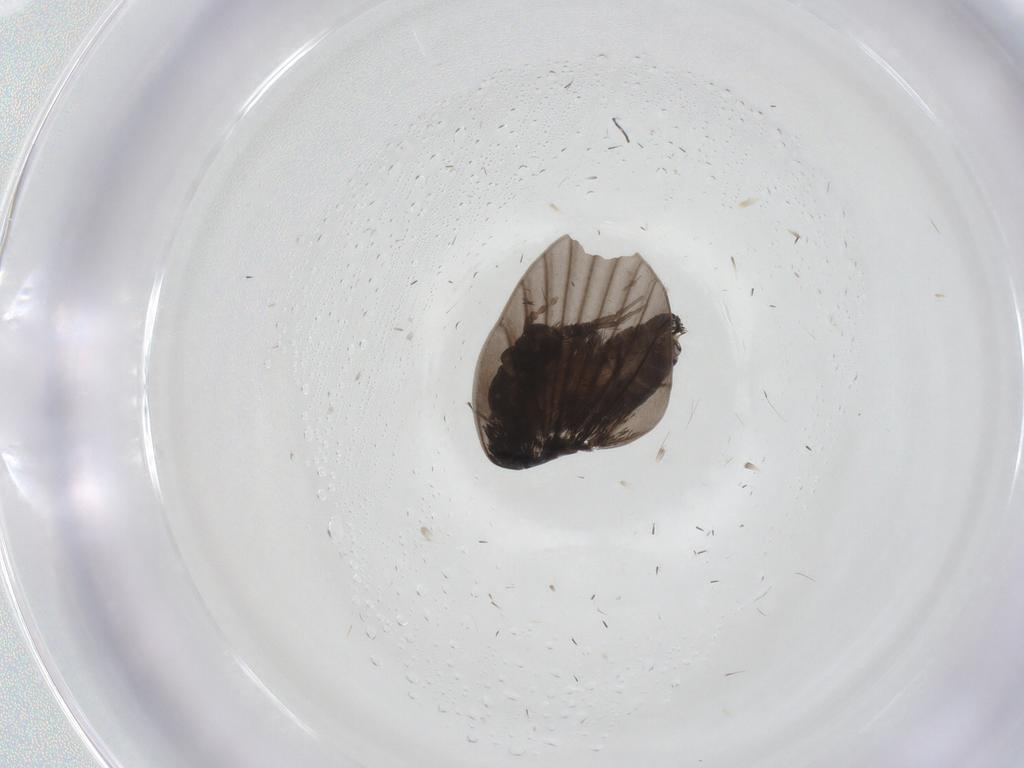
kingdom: Animalia
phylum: Arthropoda
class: Insecta
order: Diptera
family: Psychodidae
